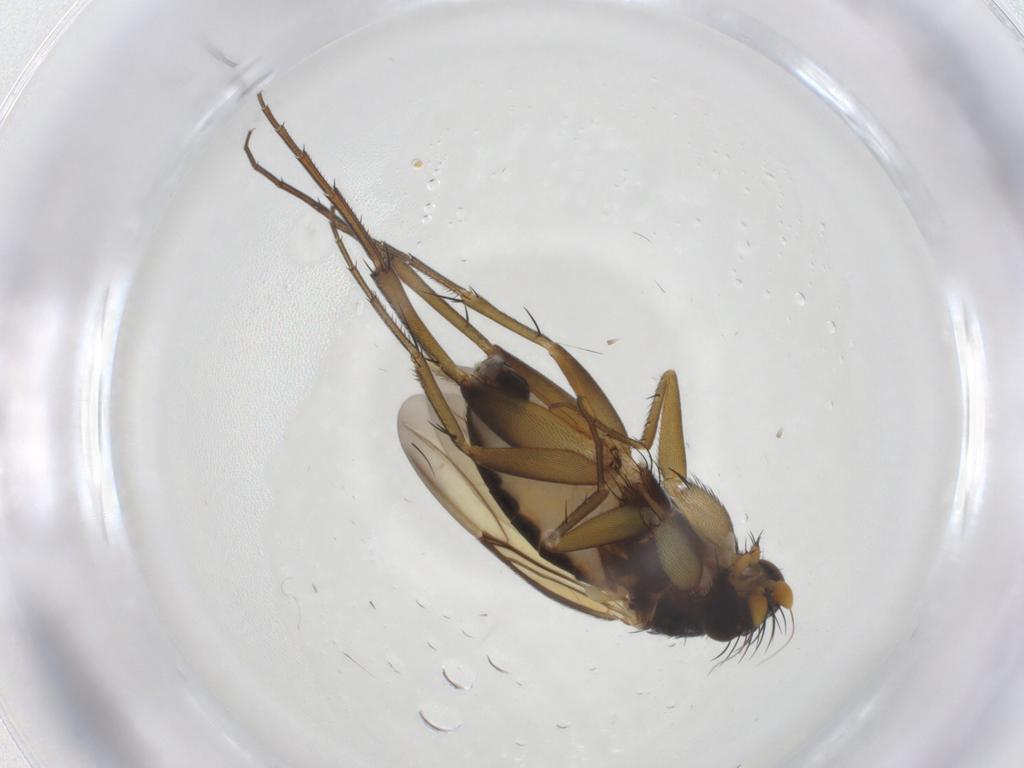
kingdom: Animalia
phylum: Arthropoda
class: Insecta
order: Diptera
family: Phoridae
